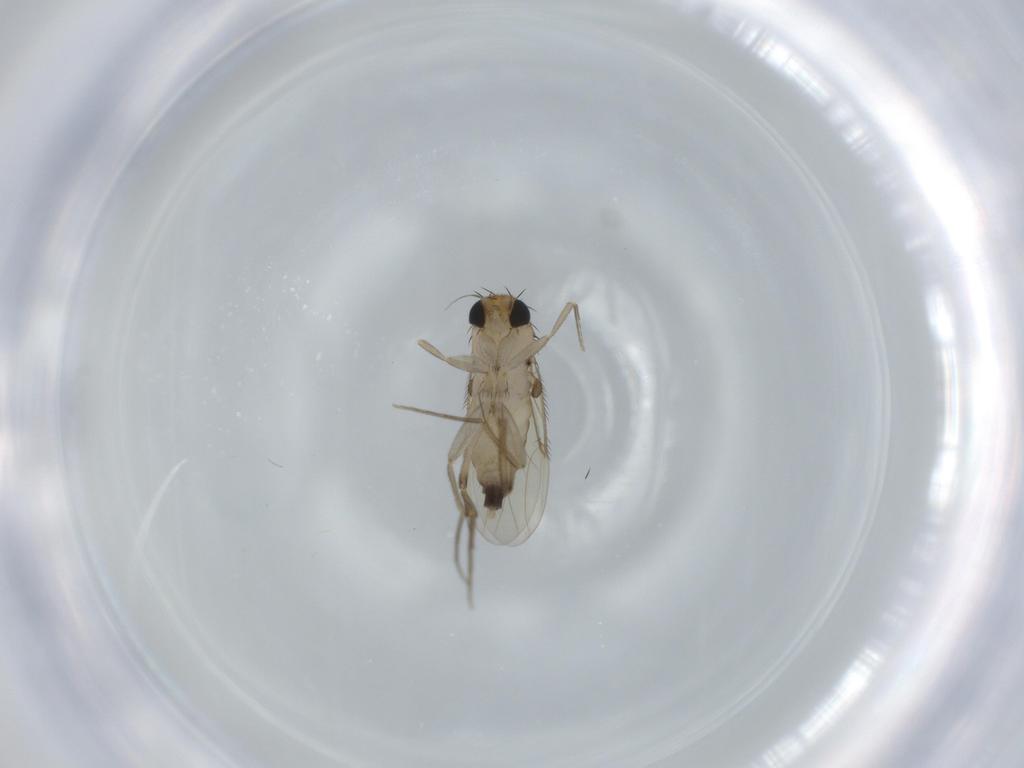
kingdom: Animalia
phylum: Arthropoda
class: Insecta
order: Diptera
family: Phoridae
